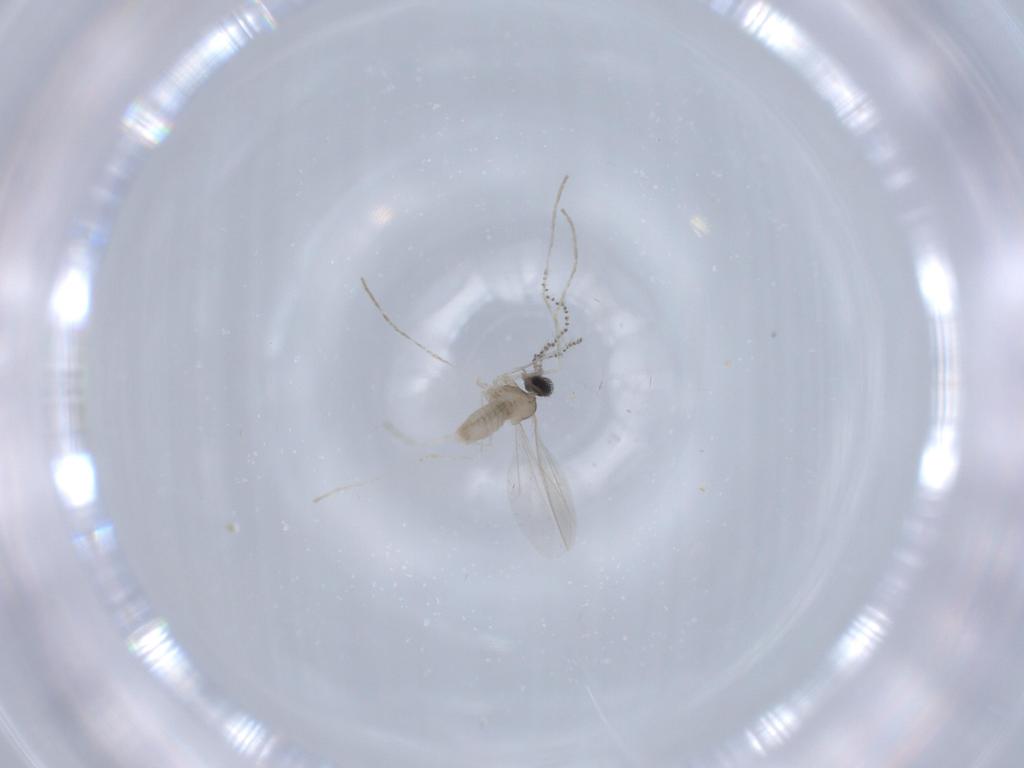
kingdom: Animalia
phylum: Arthropoda
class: Insecta
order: Diptera
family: Cecidomyiidae
